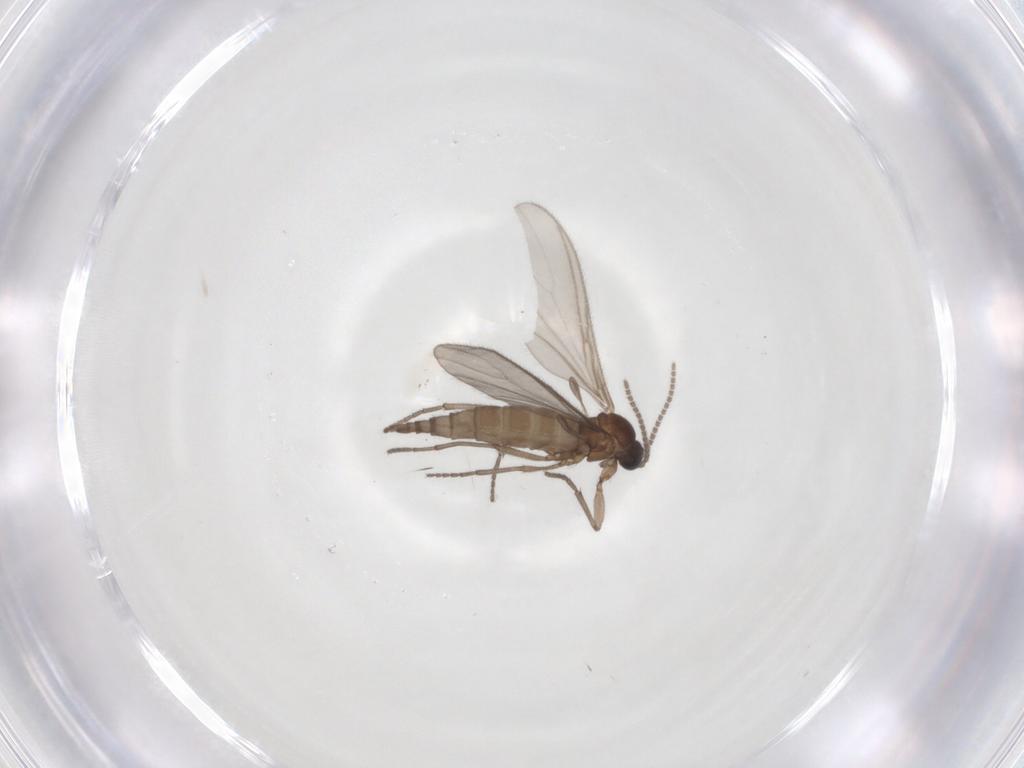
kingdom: Animalia
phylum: Arthropoda
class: Insecta
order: Diptera
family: Sciaridae
